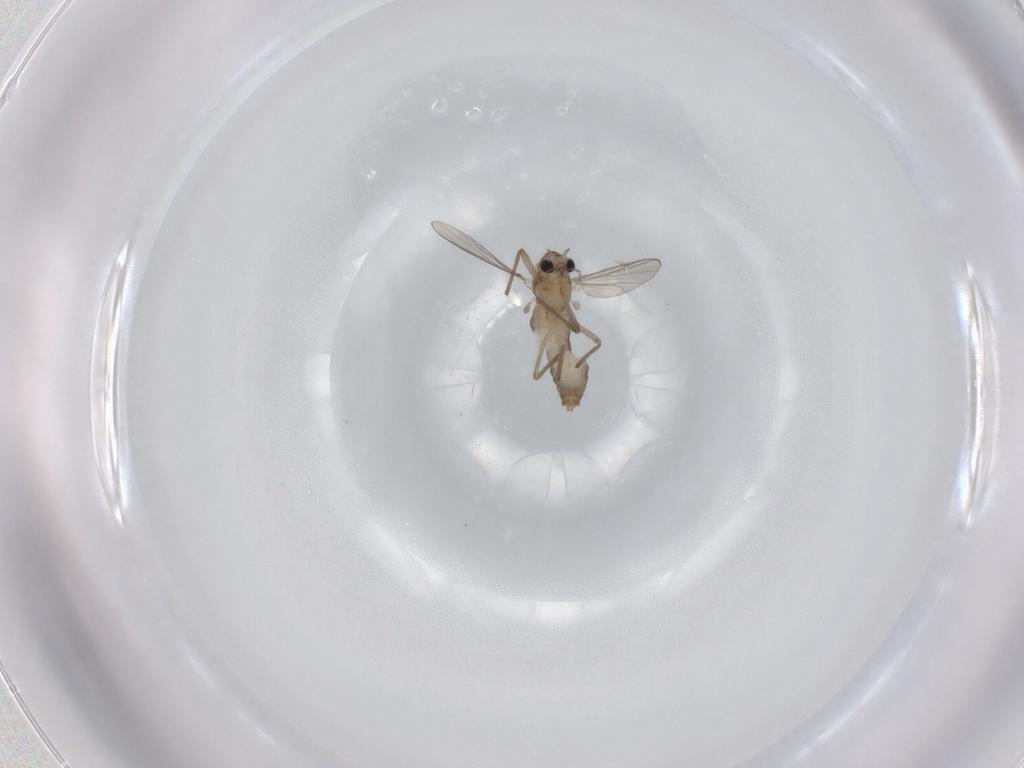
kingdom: Animalia
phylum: Arthropoda
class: Insecta
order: Diptera
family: Chironomidae
